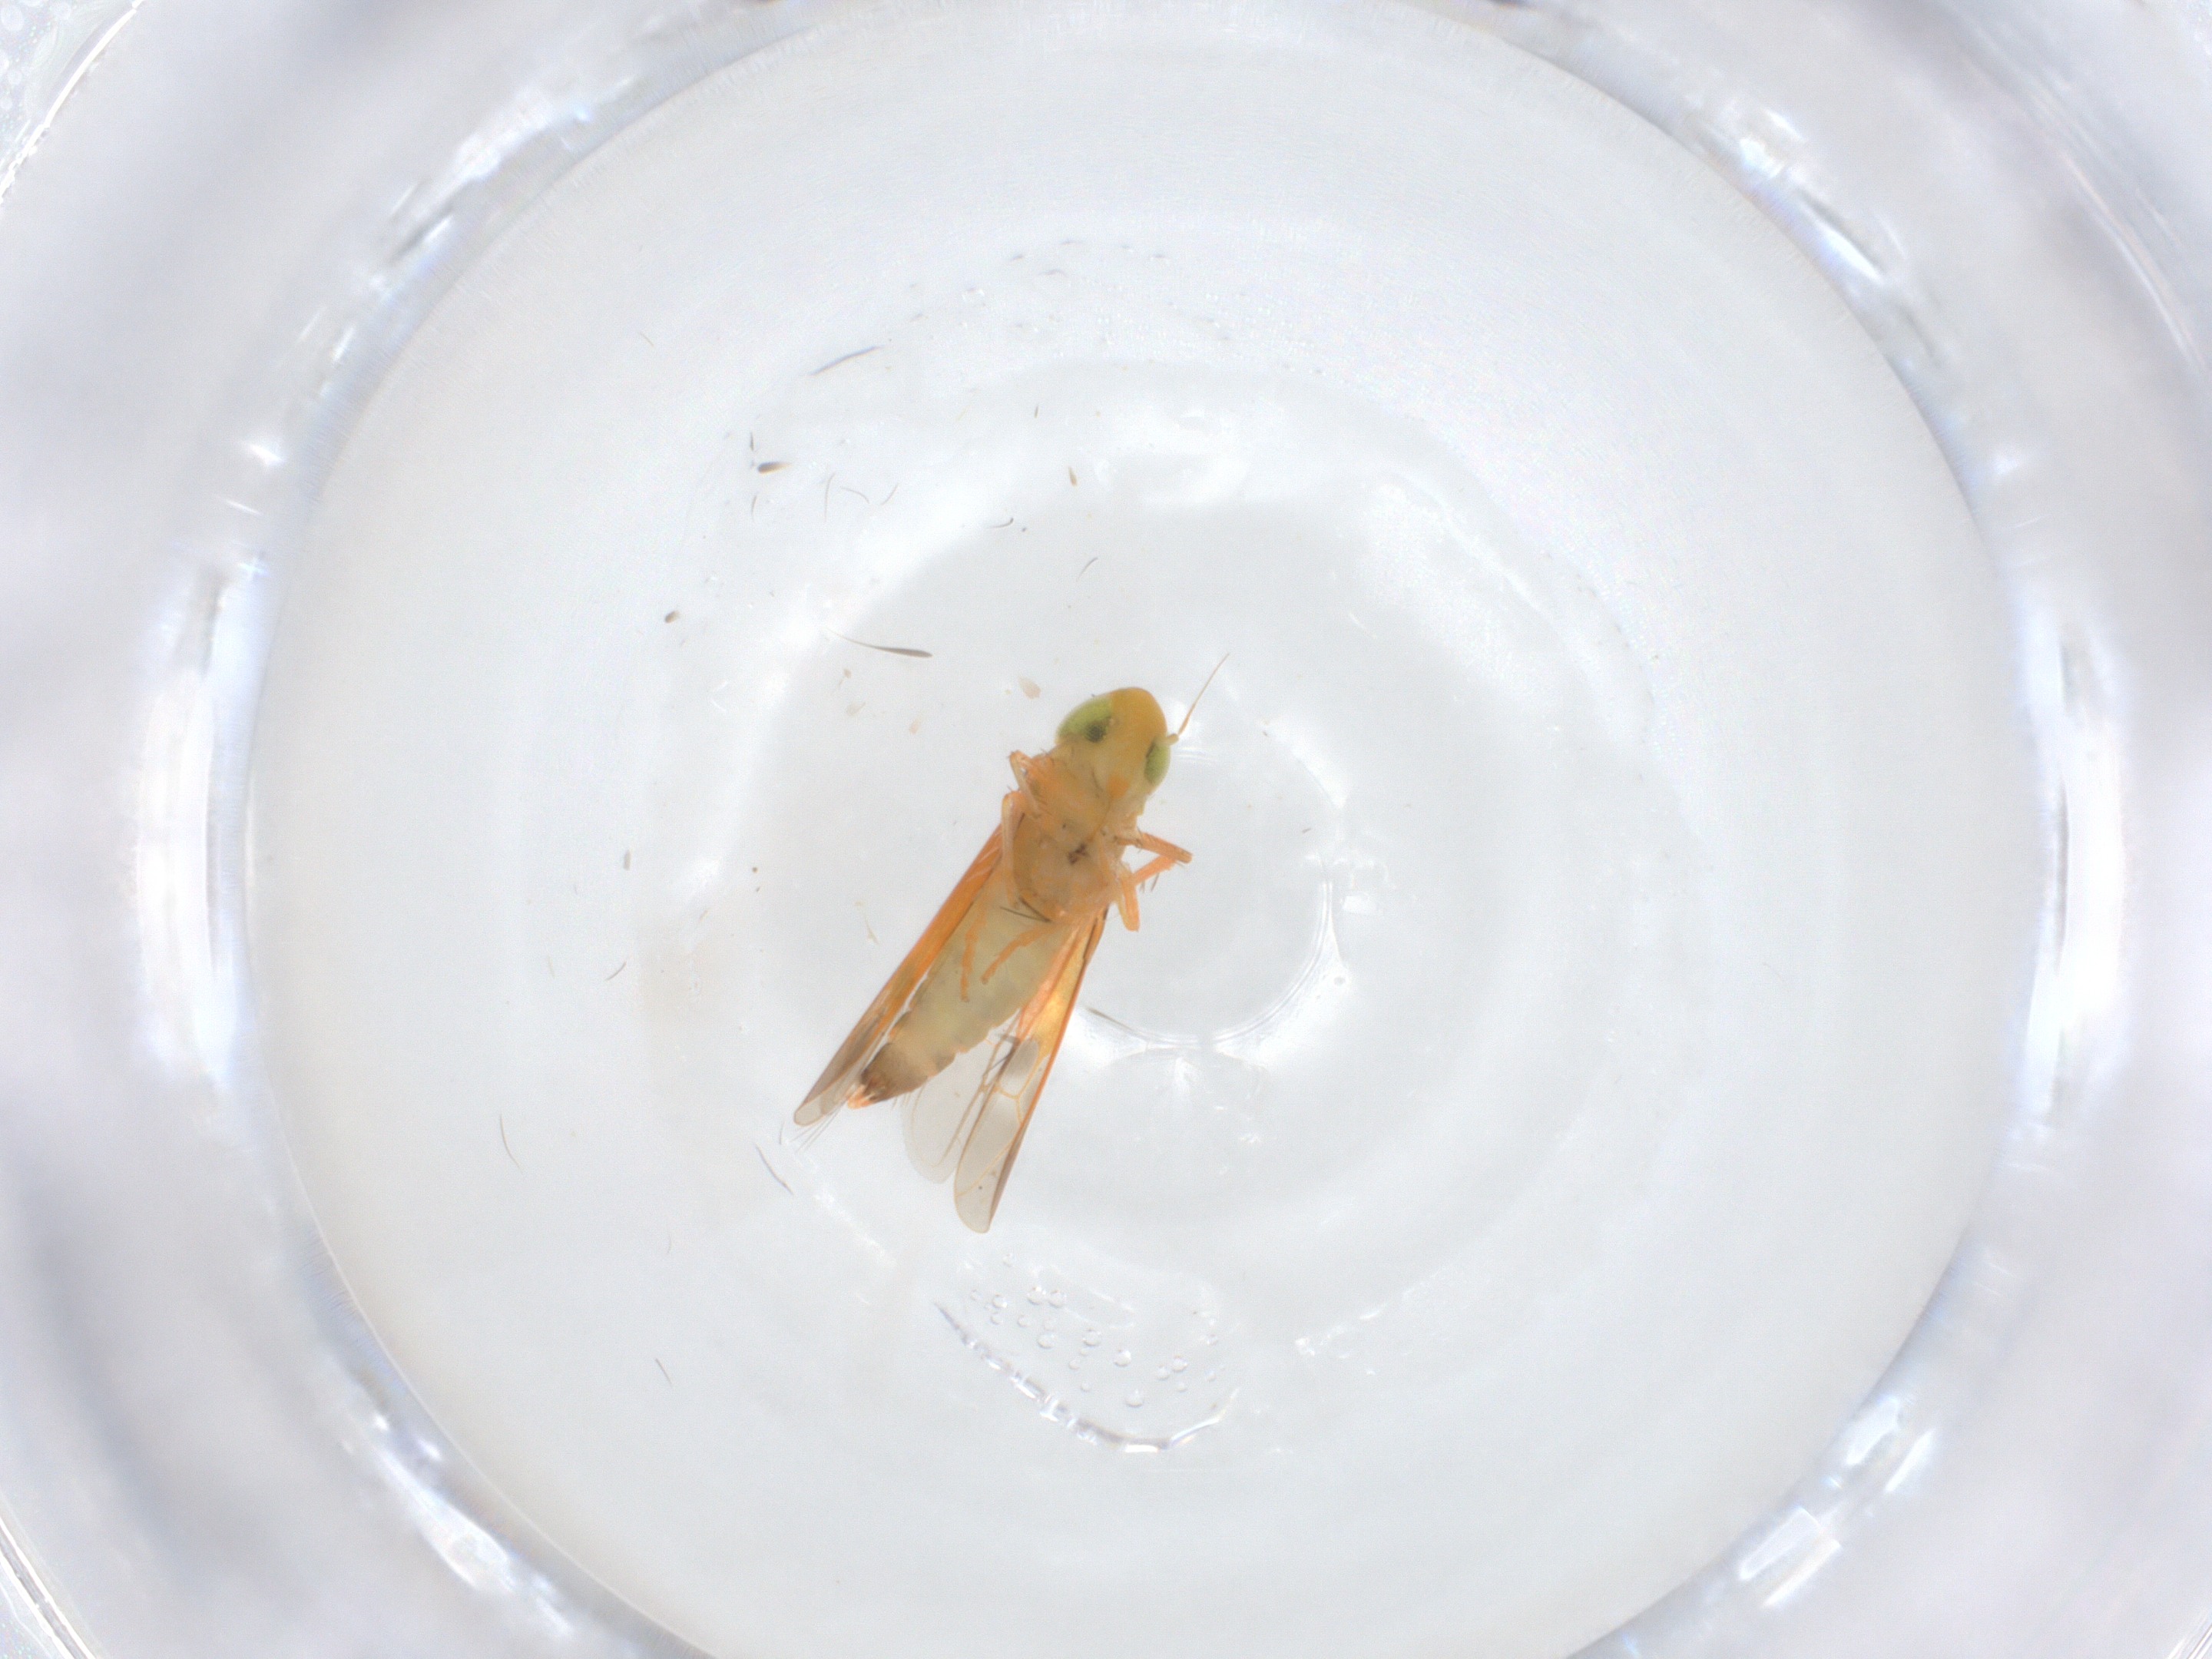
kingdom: Animalia
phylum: Arthropoda
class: Insecta
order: Hemiptera
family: Cicadellidae
